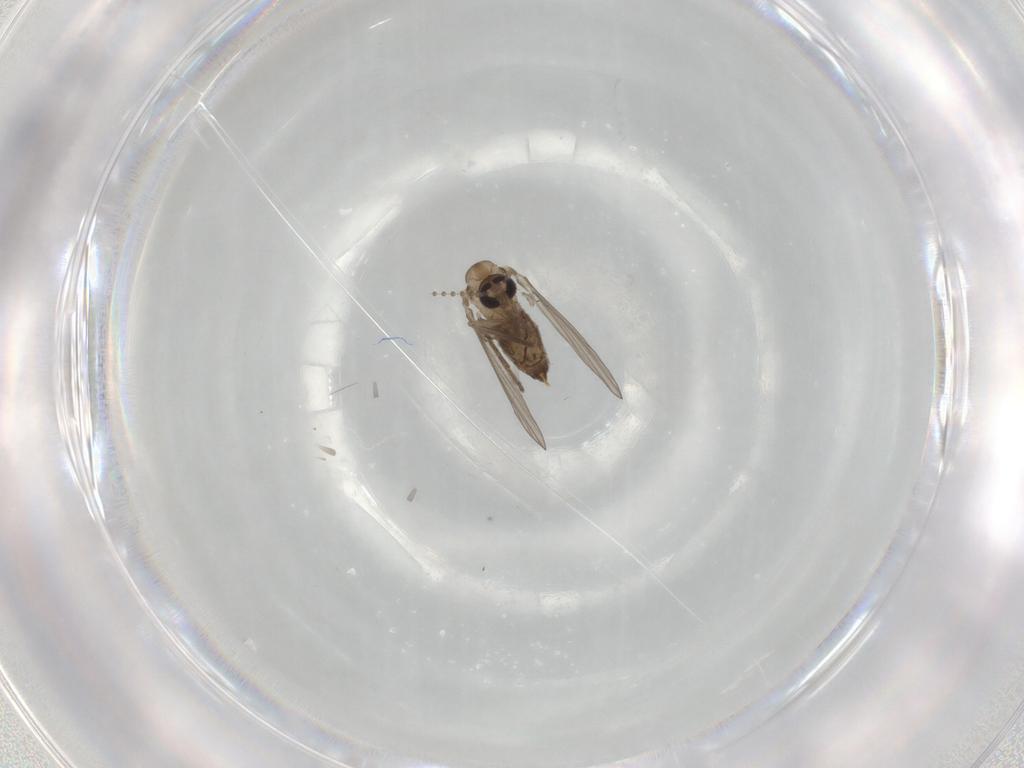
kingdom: Animalia
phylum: Arthropoda
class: Insecta
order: Diptera
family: Psychodidae
